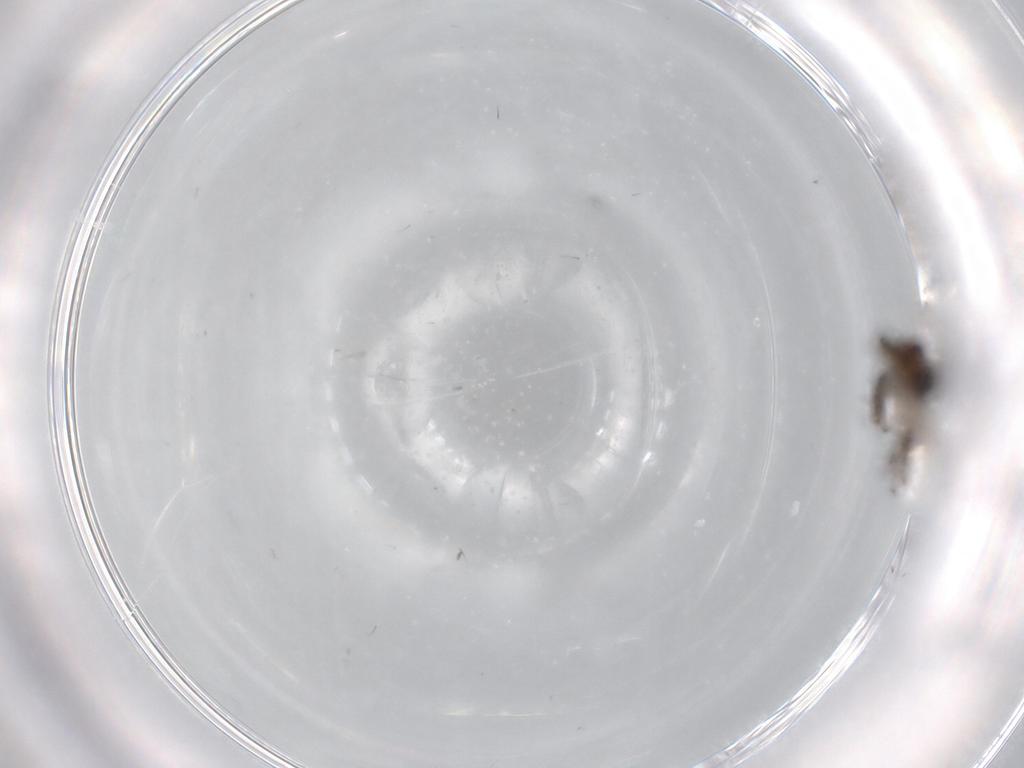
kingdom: Animalia
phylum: Arthropoda
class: Insecta
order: Diptera
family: Sciaridae
